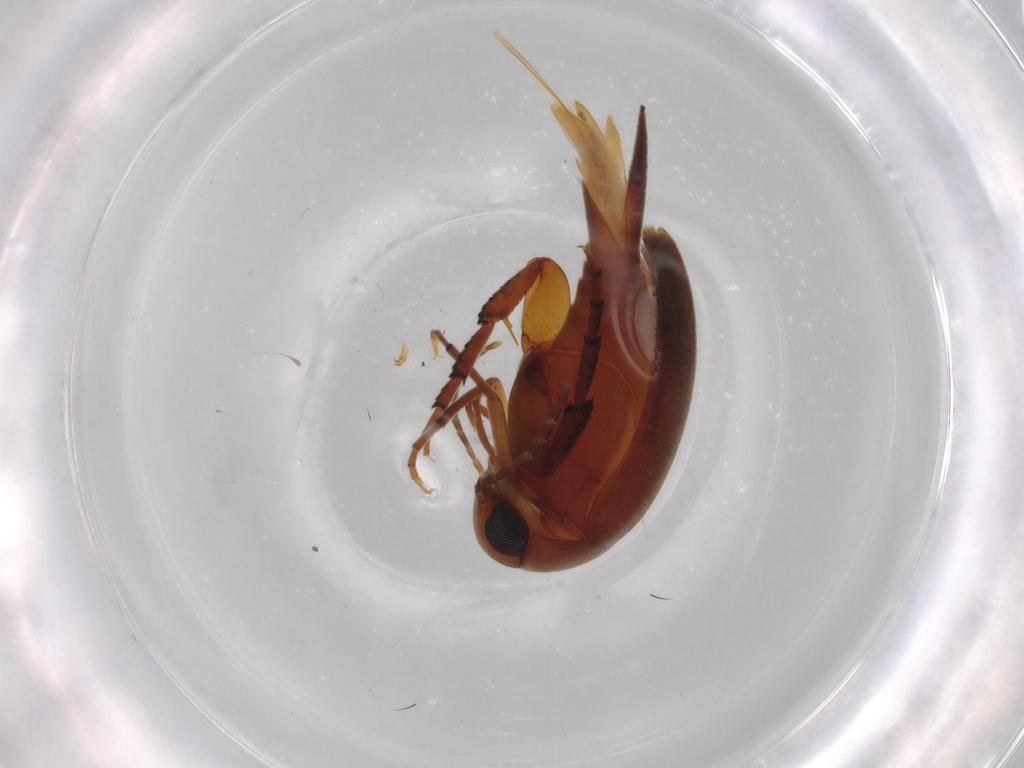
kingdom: Animalia
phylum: Arthropoda
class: Insecta
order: Coleoptera
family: Mordellidae
